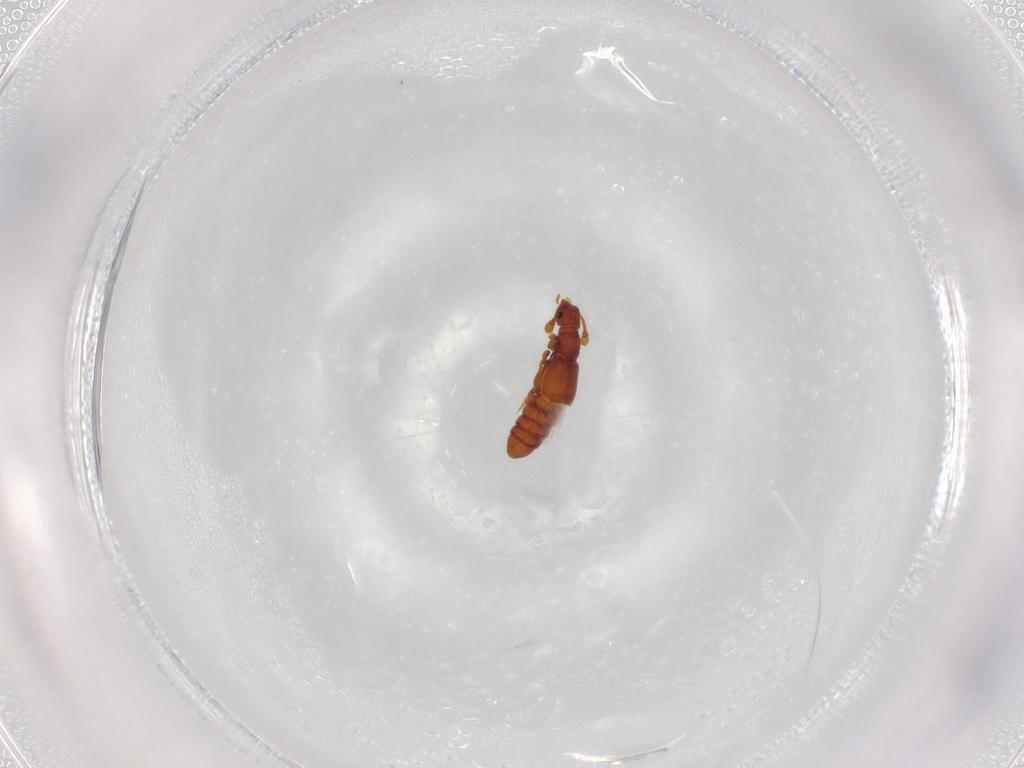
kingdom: Animalia
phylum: Arthropoda
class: Insecta
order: Coleoptera
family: Staphylinidae
